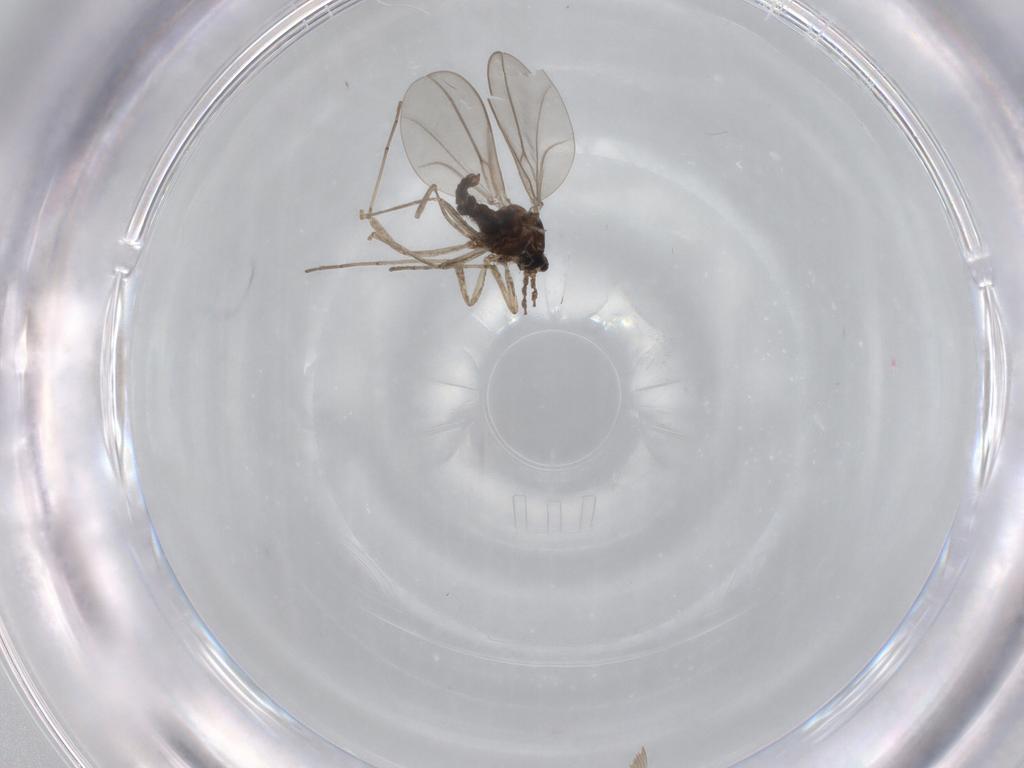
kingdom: Animalia
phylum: Arthropoda
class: Insecta
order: Diptera
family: Cecidomyiidae
